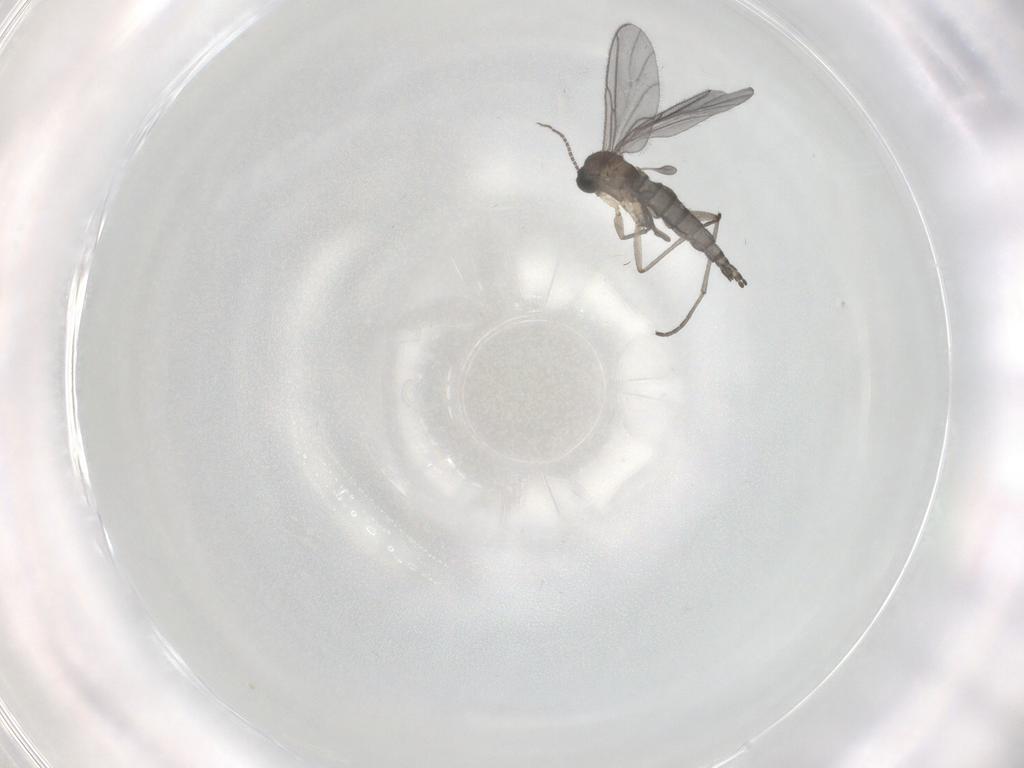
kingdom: Animalia
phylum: Arthropoda
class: Insecta
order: Diptera
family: Sciaridae
